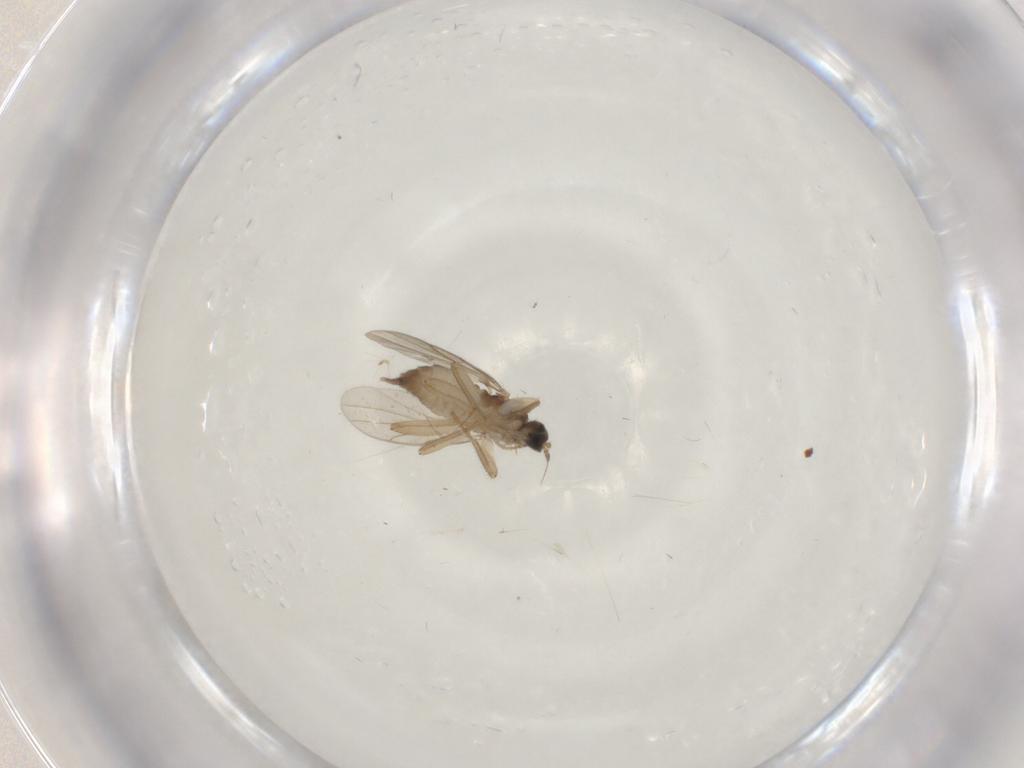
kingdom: Animalia
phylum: Arthropoda
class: Insecta
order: Diptera
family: Hybotidae
